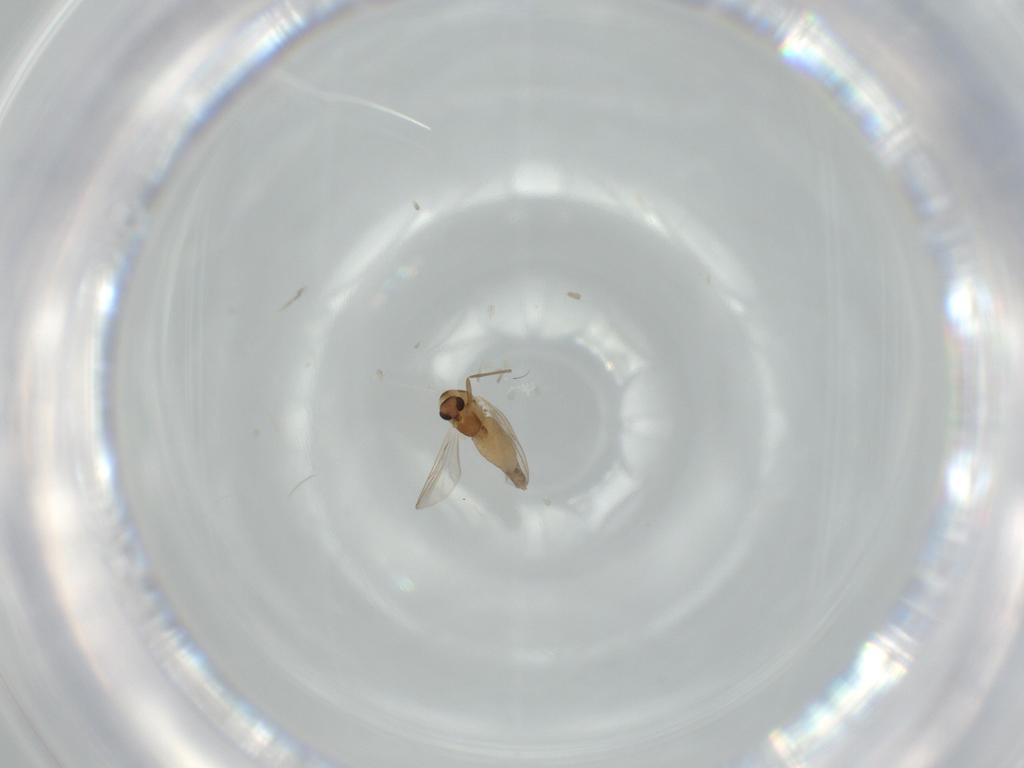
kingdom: Animalia
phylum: Arthropoda
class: Insecta
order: Diptera
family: Chironomidae
